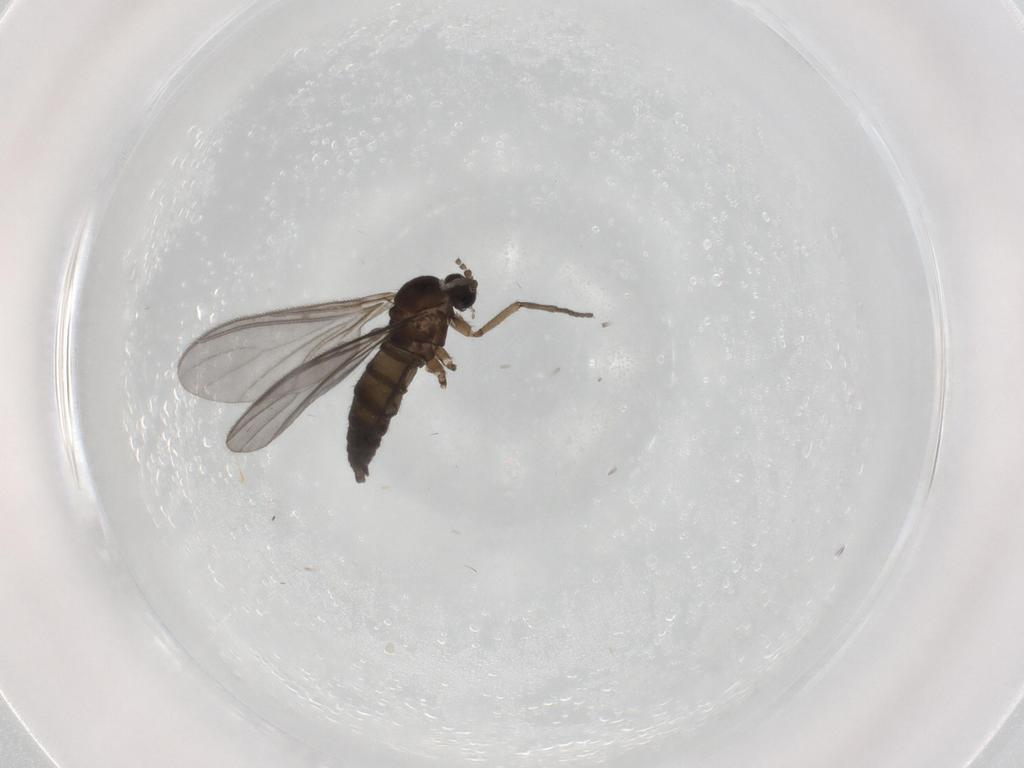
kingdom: Animalia
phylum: Arthropoda
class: Insecta
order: Diptera
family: Sciaridae
